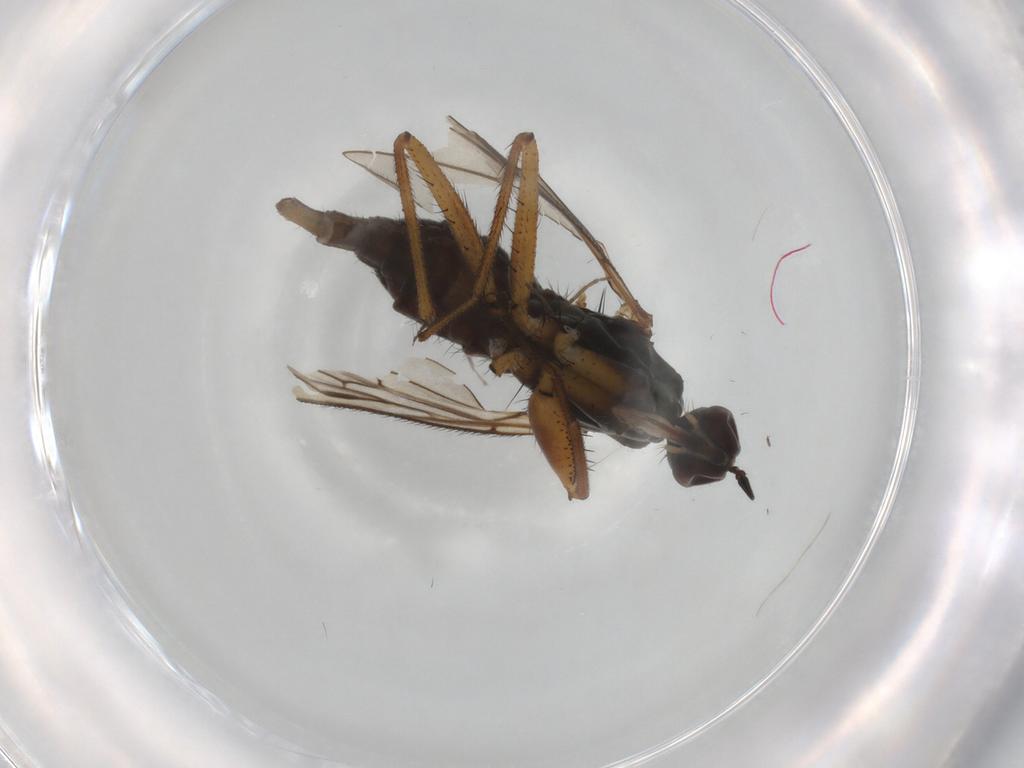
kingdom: Animalia
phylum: Arthropoda
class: Insecta
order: Diptera
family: Empididae
